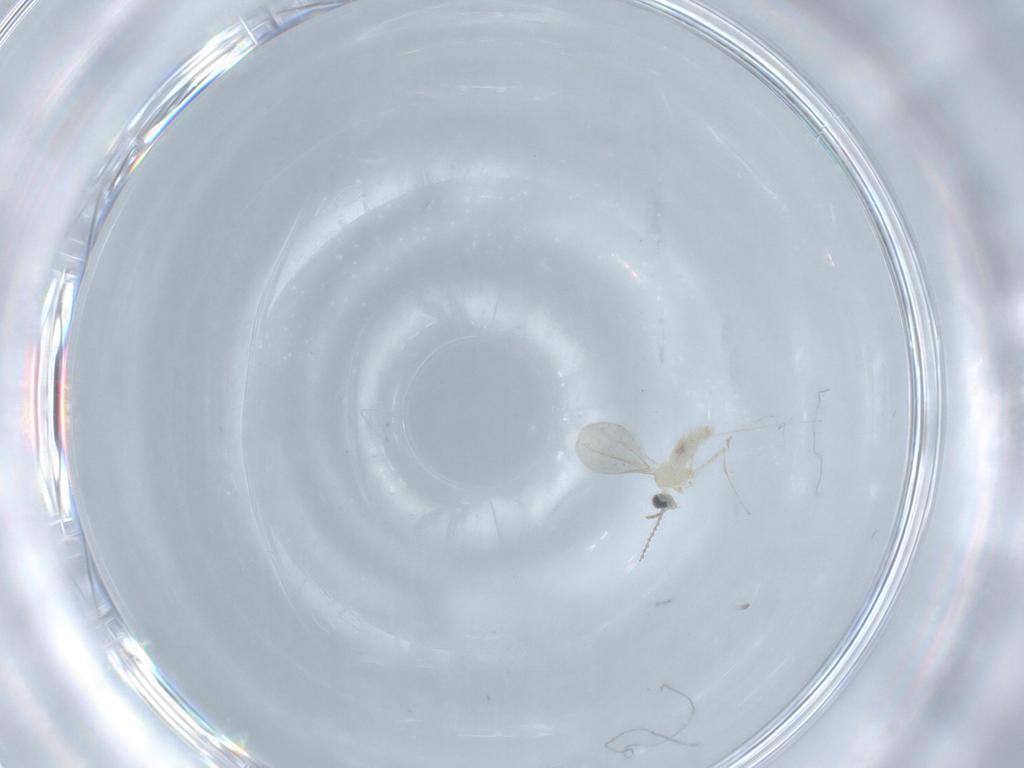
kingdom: Animalia
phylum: Arthropoda
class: Insecta
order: Diptera
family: Cecidomyiidae
